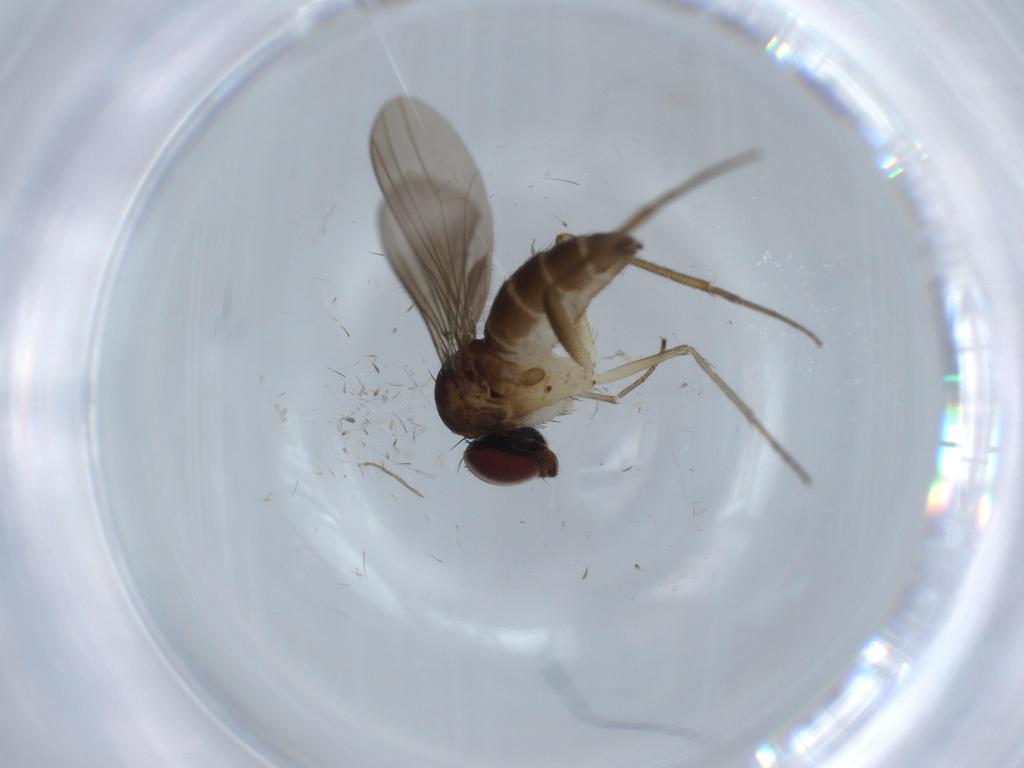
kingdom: Animalia
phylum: Arthropoda
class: Insecta
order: Diptera
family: Dolichopodidae
